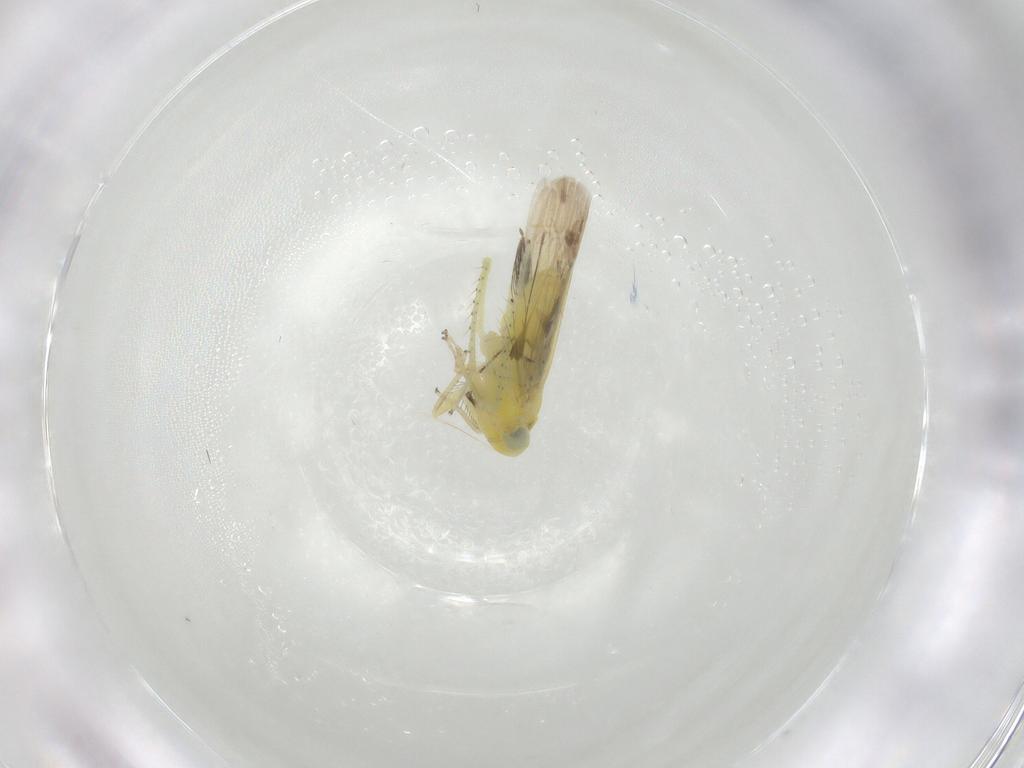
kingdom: Animalia
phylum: Arthropoda
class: Insecta
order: Hemiptera
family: Cicadellidae
